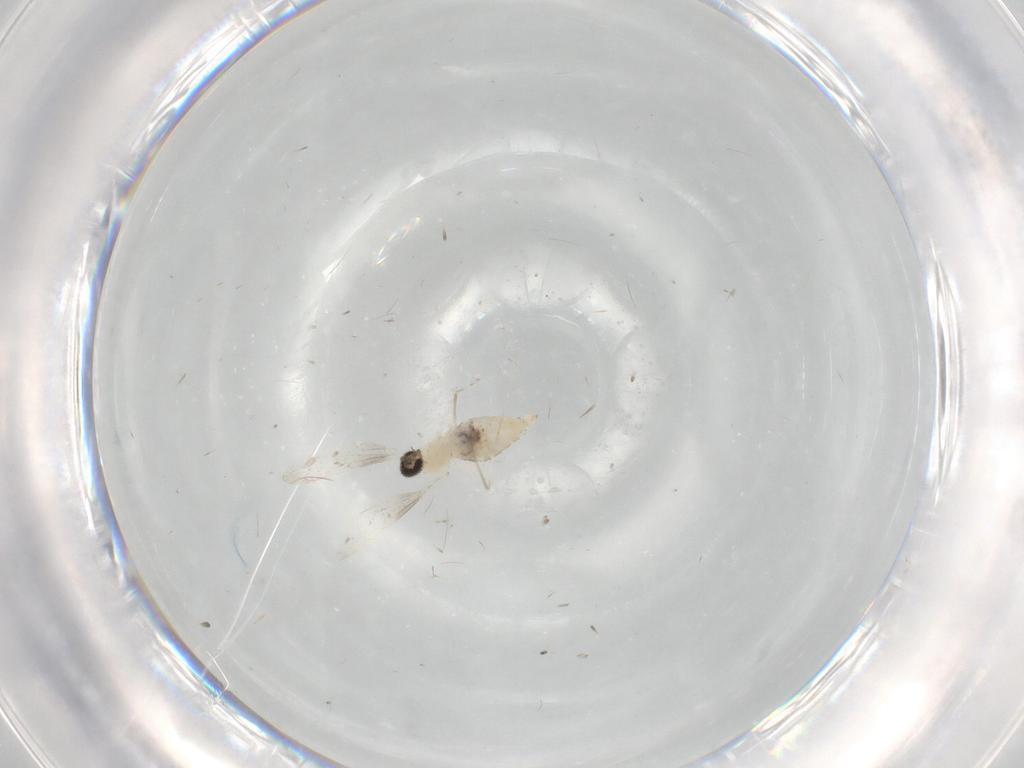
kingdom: Animalia
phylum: Arthropoda
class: Insecta
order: Diptera
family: Cecidomyiidae
